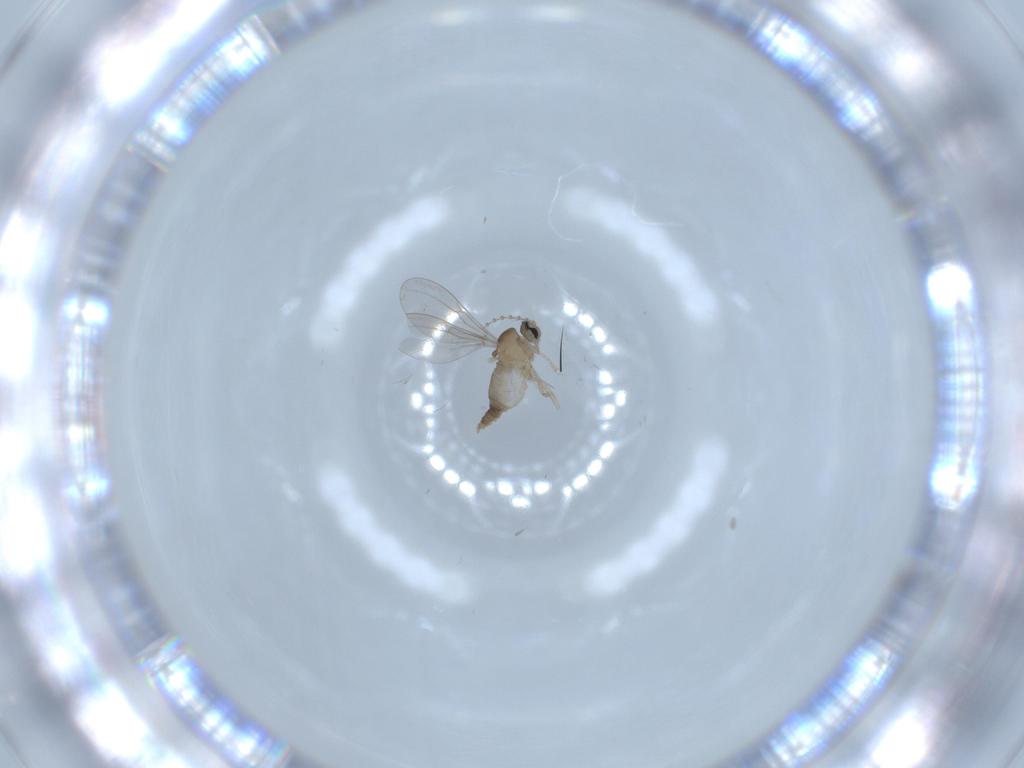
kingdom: Animalia
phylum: Arthropoda
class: Insecta
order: Diptera
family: Cecidomyiidae
